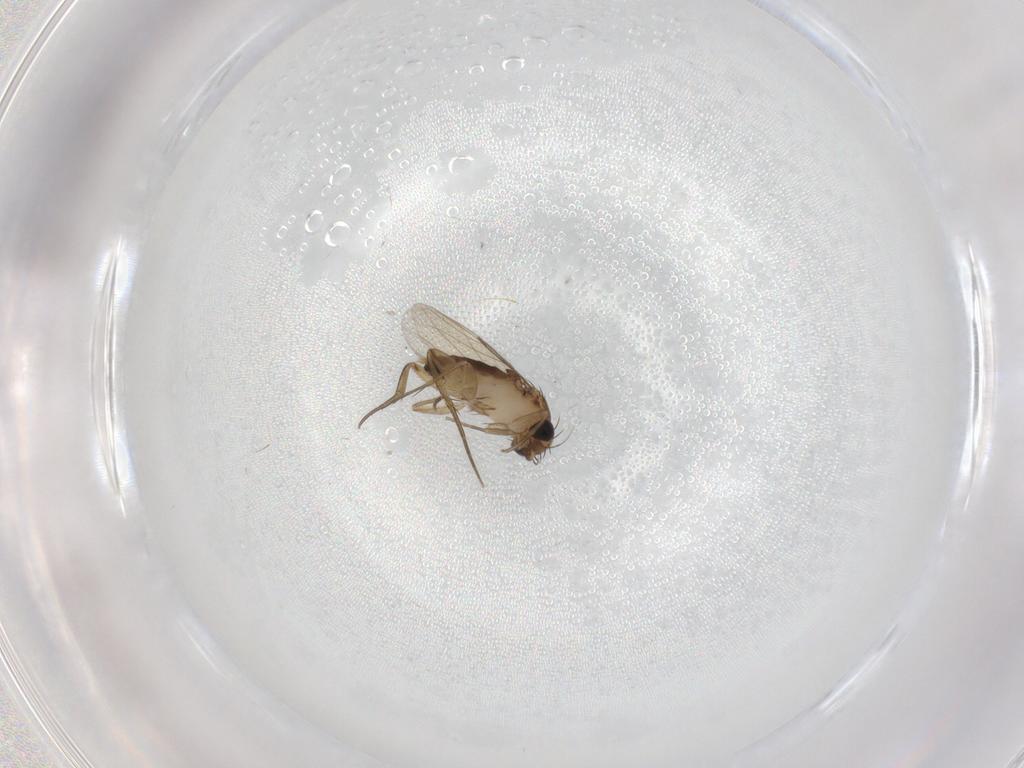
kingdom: Animalia
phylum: Arthropoda
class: Insecta
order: Diptera
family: Phoridae
